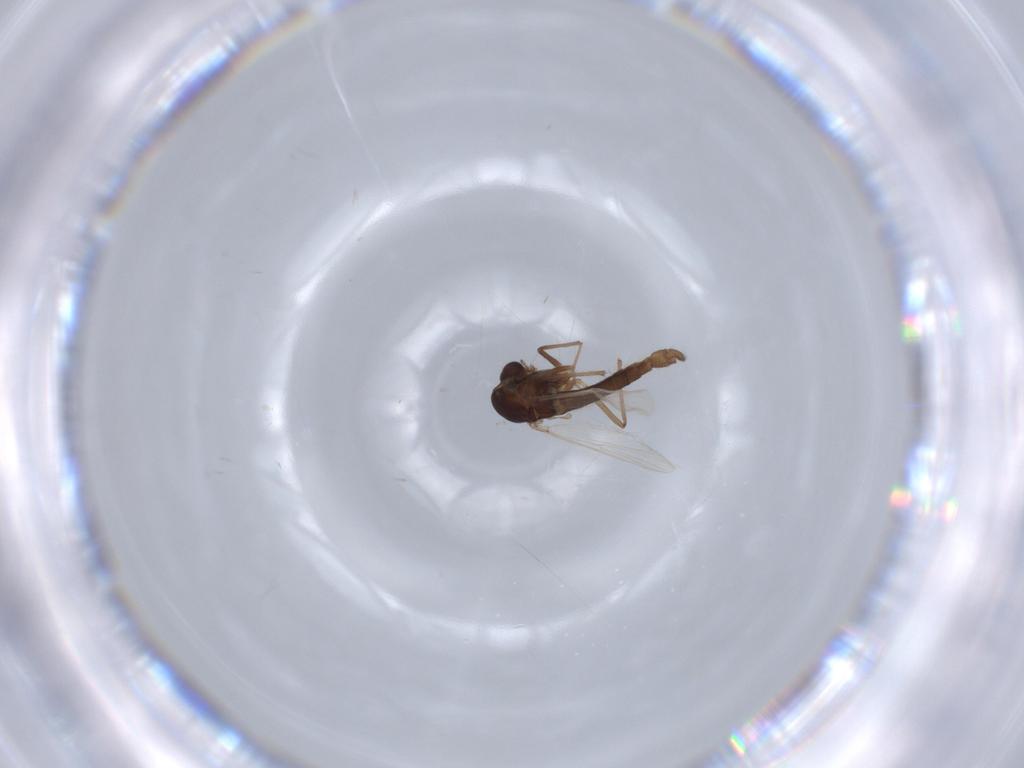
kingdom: Animalia
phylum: Arthropoda
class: Insecta
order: Diptera
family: Chironomidae
